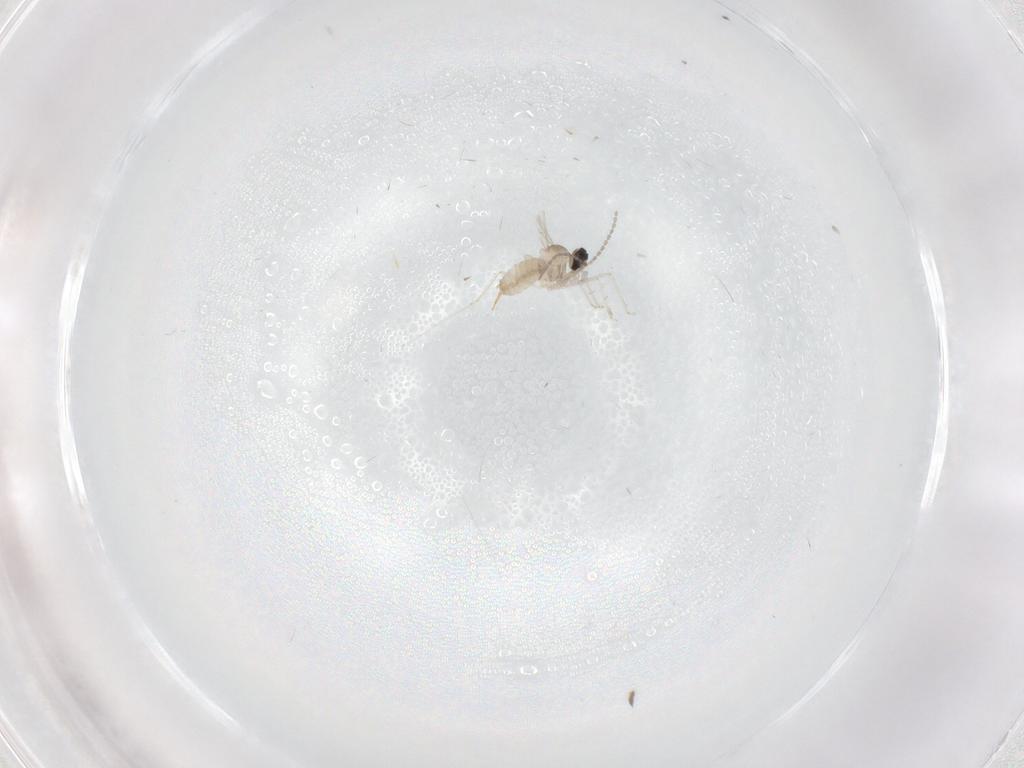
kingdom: Animalia
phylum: Arthropoda
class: Insecta
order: Diptera
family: Cecidomyiidae
